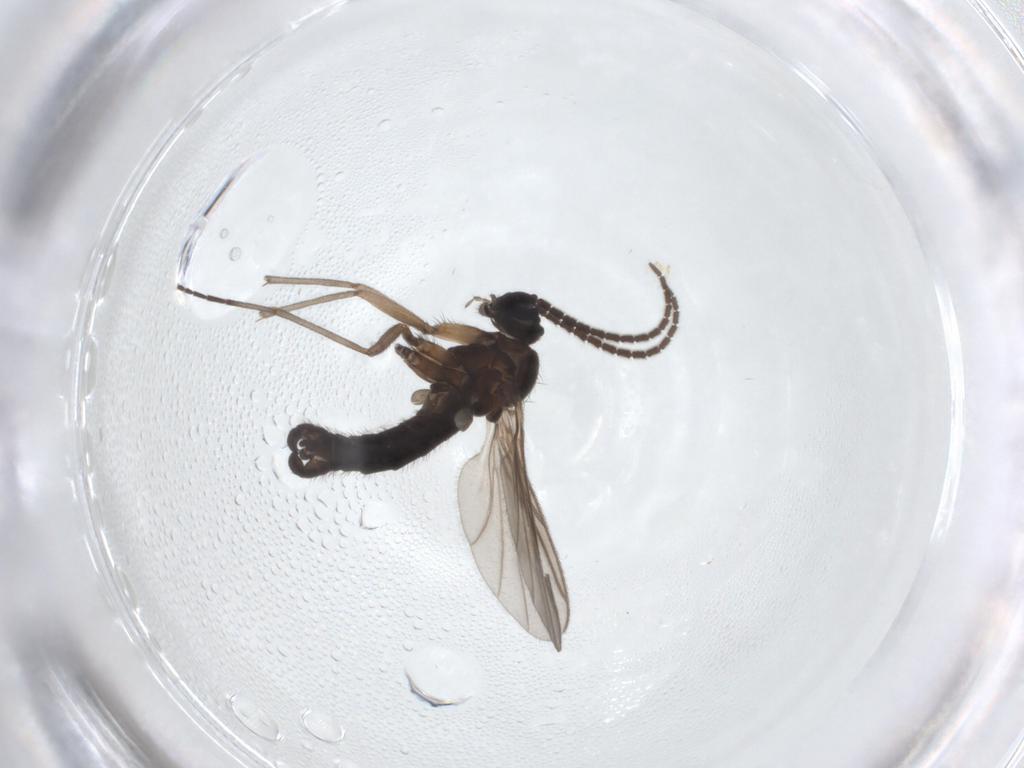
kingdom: Animalia
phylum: Arthropoda
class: Insecta
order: Diptera
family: Sciaridae
